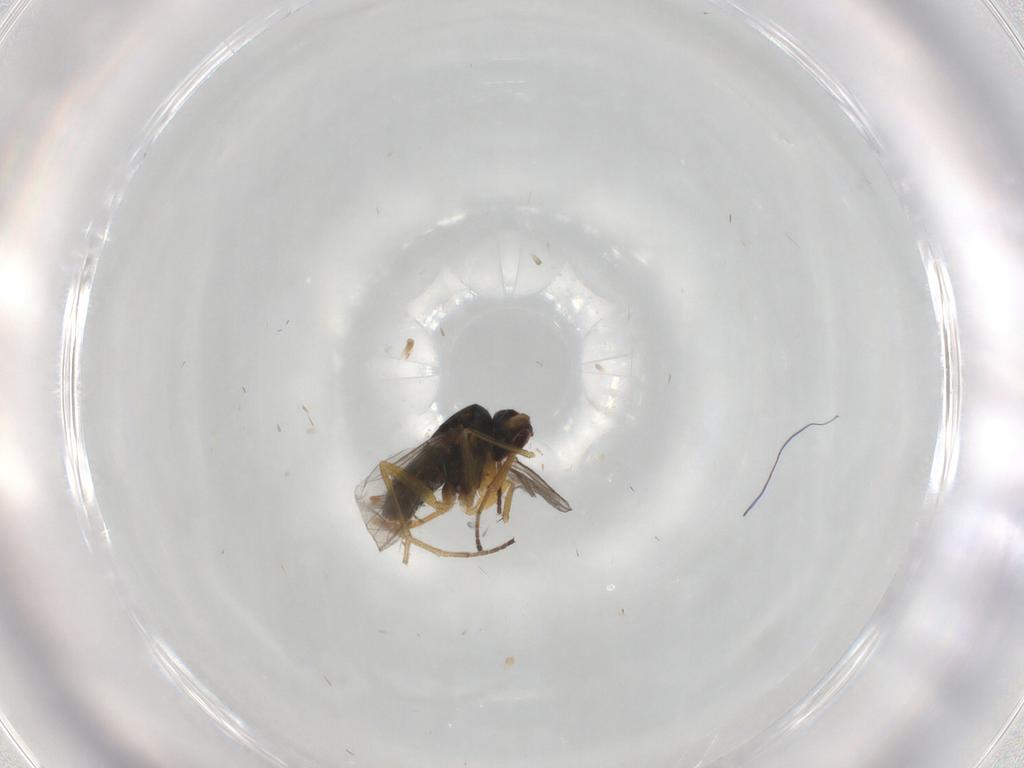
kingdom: Animalia
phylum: Arthropoda
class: Insecta
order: Diptera
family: Dolichopodidae
